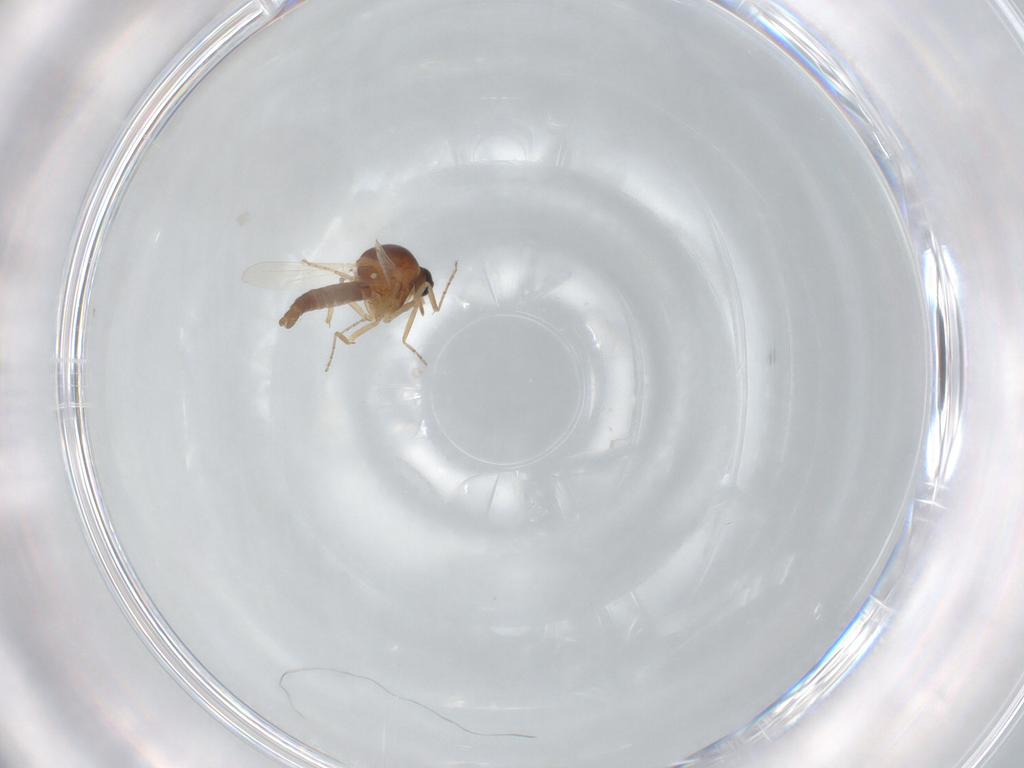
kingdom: Animalia
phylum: Arthropoda
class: Insecta
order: Diptera
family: Ceratopogonidae
